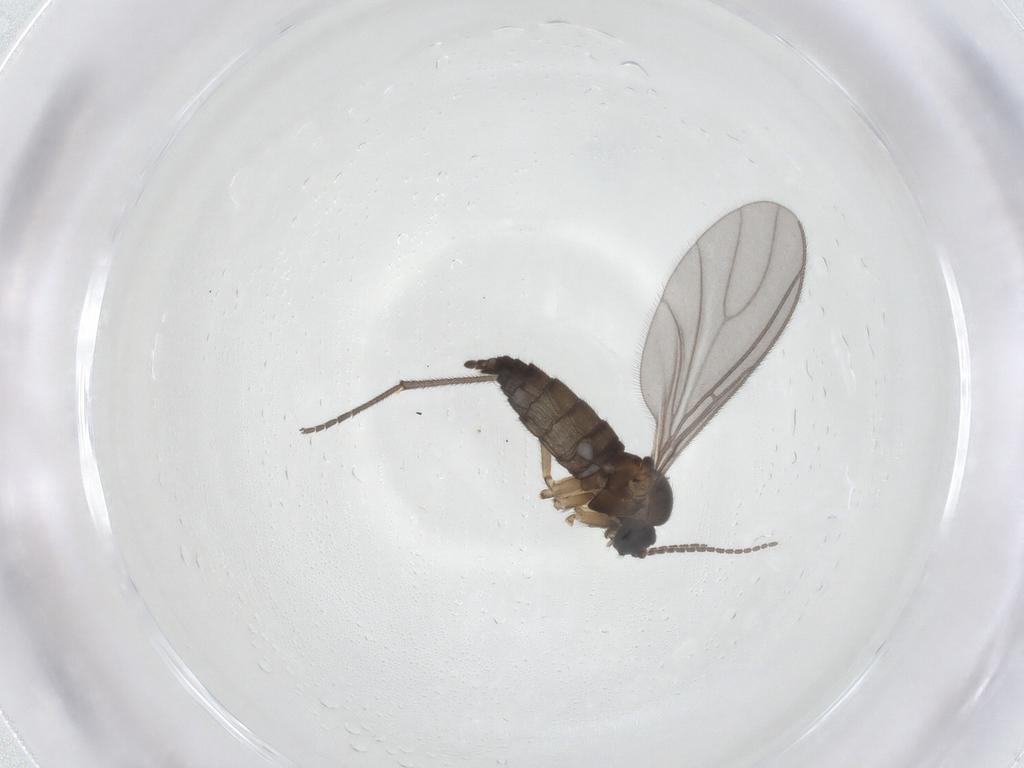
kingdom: Animalia
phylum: Arthropoda
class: Insecta
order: Diptera
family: Sciaridae
